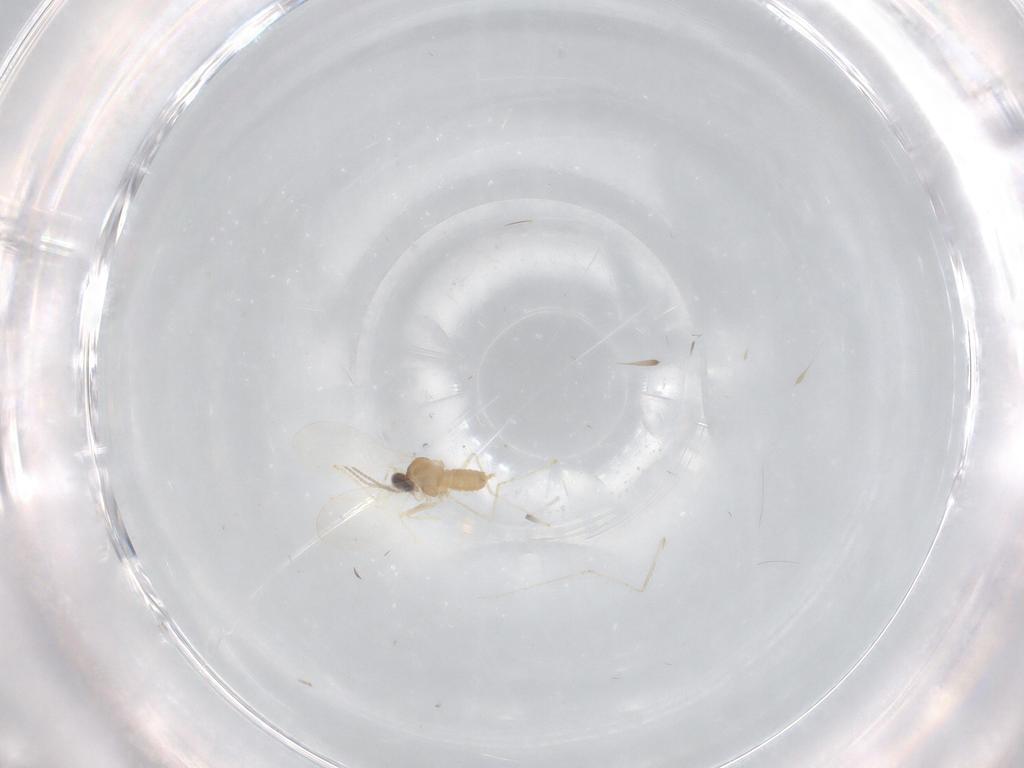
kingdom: Animalia
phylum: Arthropoda
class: Insecta
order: Diptera
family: Cecidomyiidae
